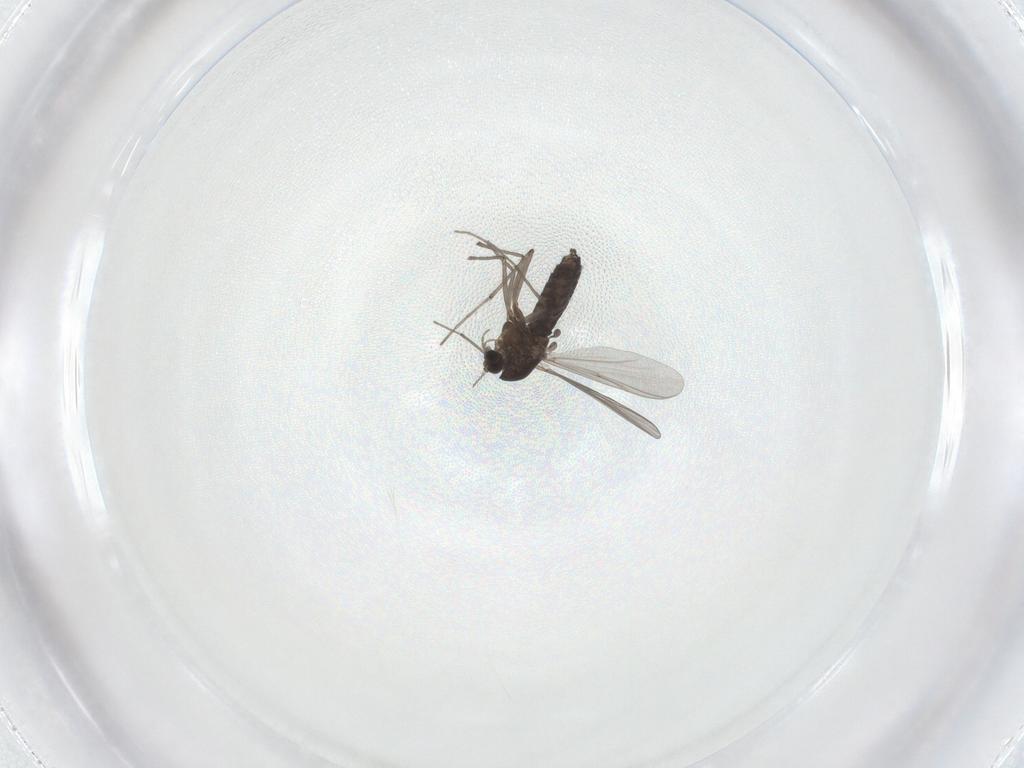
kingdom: Animalia
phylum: Arthropoda
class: Insecta
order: Diptera
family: Chironomidae
